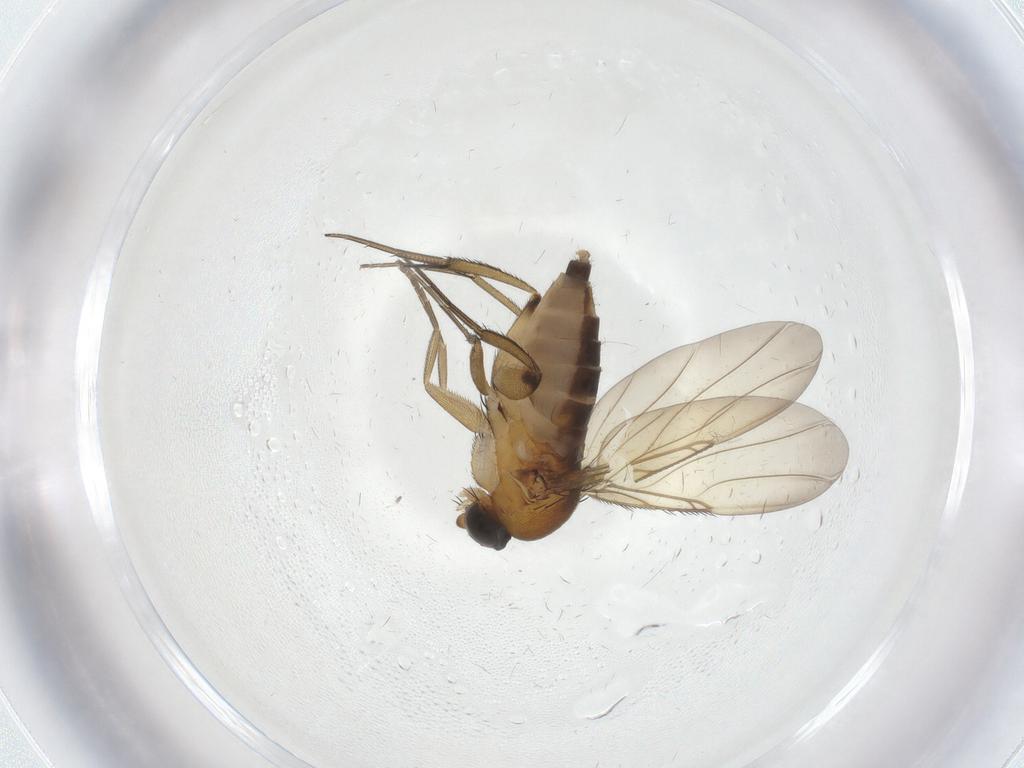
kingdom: Animalia
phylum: Arthropoda
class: Insecta
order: Diptera
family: Phoridae
